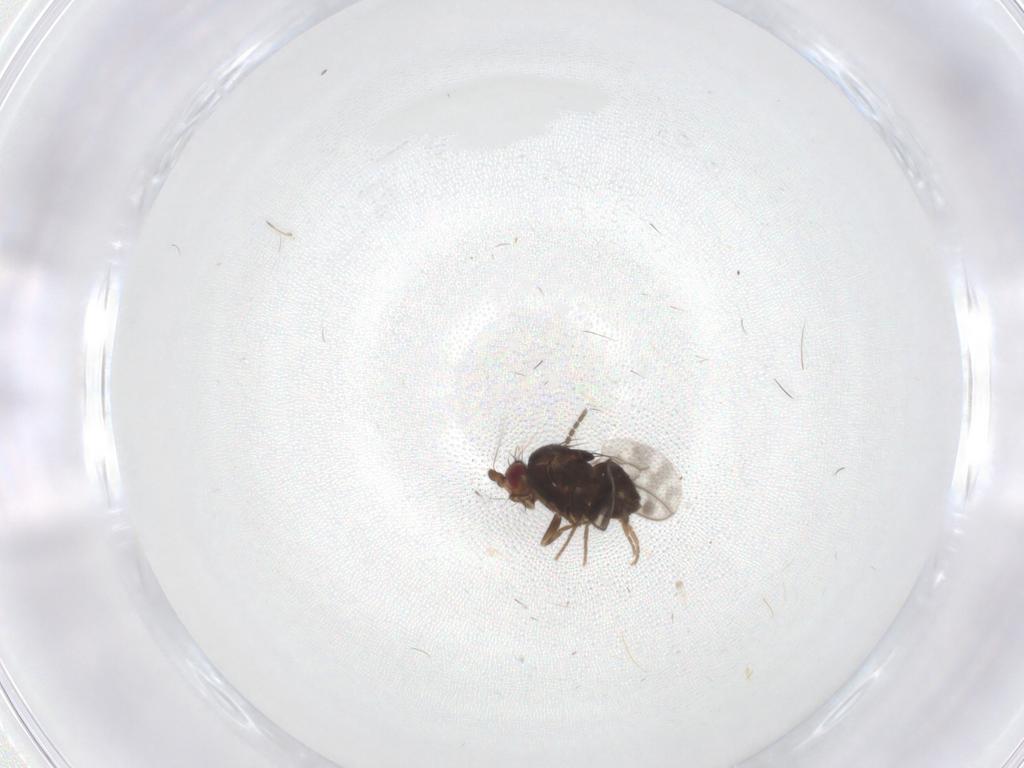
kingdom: Animalia
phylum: Arthropoda
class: Insecta
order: Diptera
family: Sphaeroceridae
